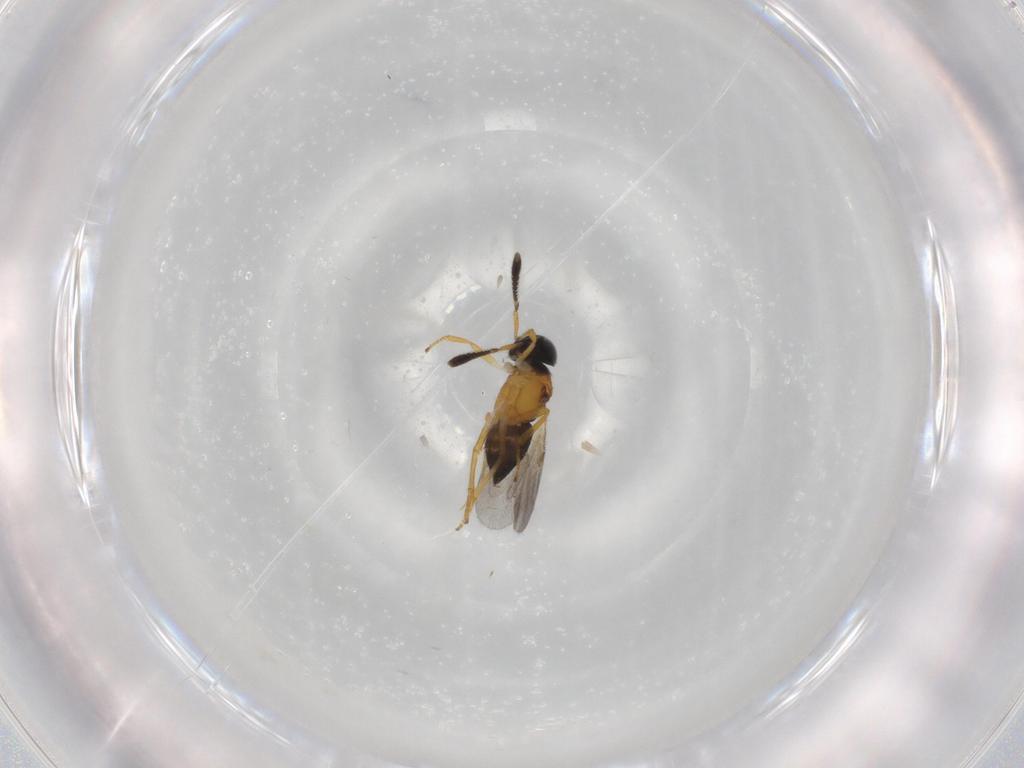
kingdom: Animalia
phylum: Arthropoda
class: Insecta
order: Hymenoptera
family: Encyrtidae
